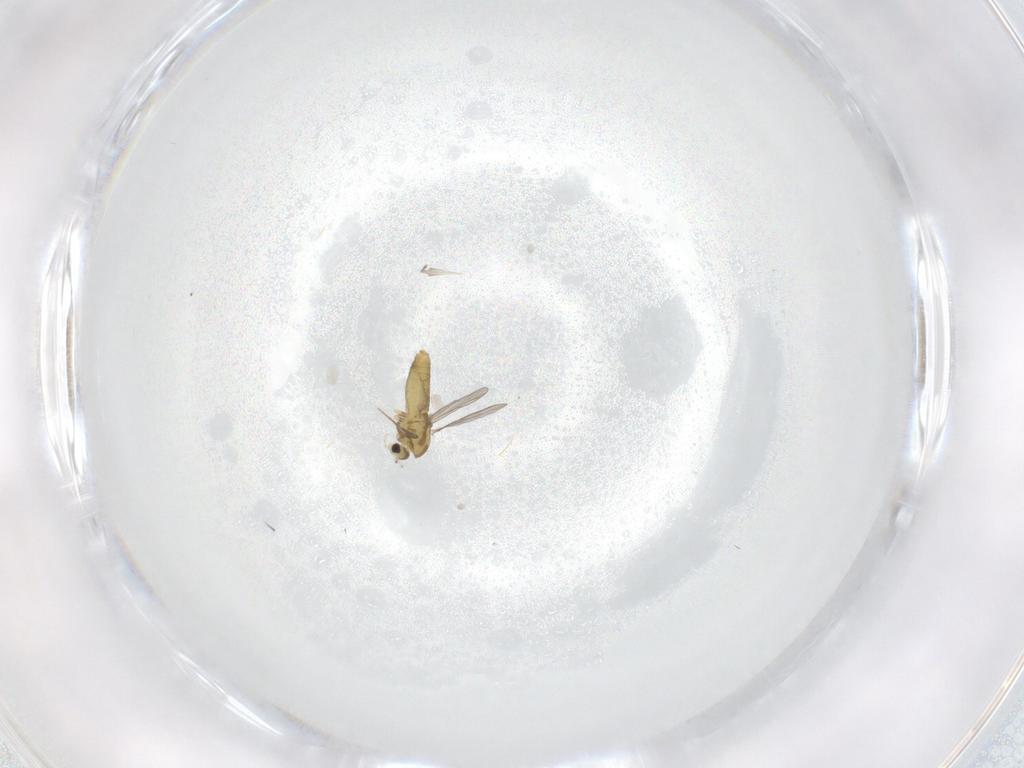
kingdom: Animalia
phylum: Arthropoda
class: Insecta
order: Diptera
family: Chironomidae
